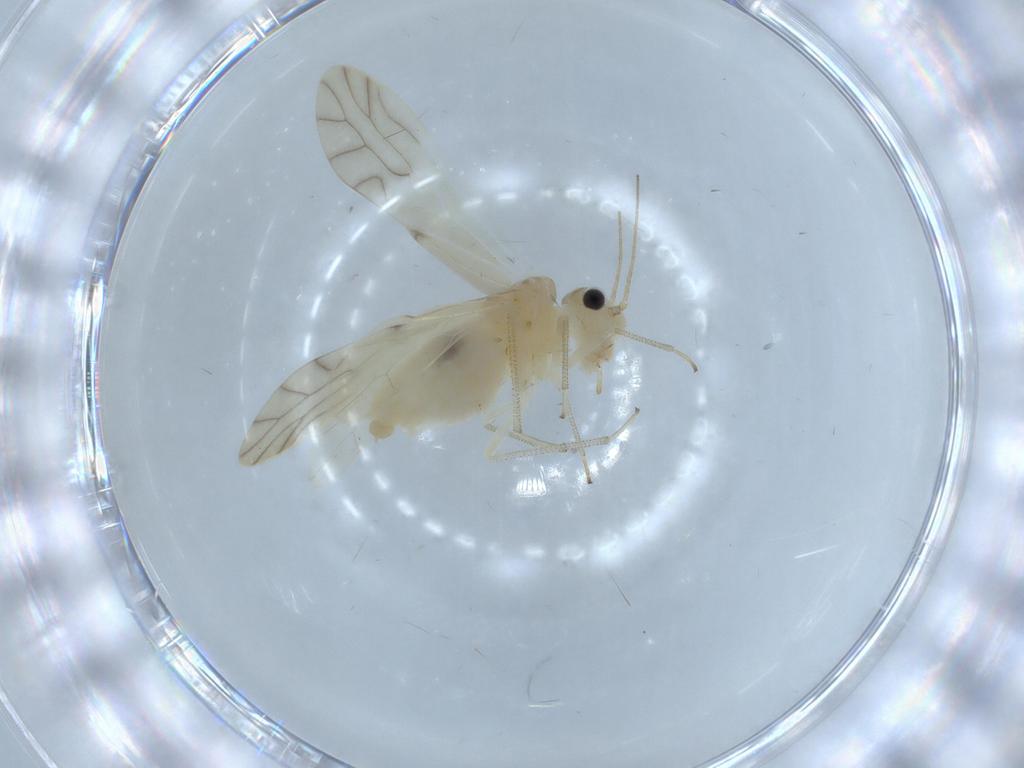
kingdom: Animalia
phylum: Arthropoda
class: Insecta
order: Psocodea
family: Caeciliusidae
